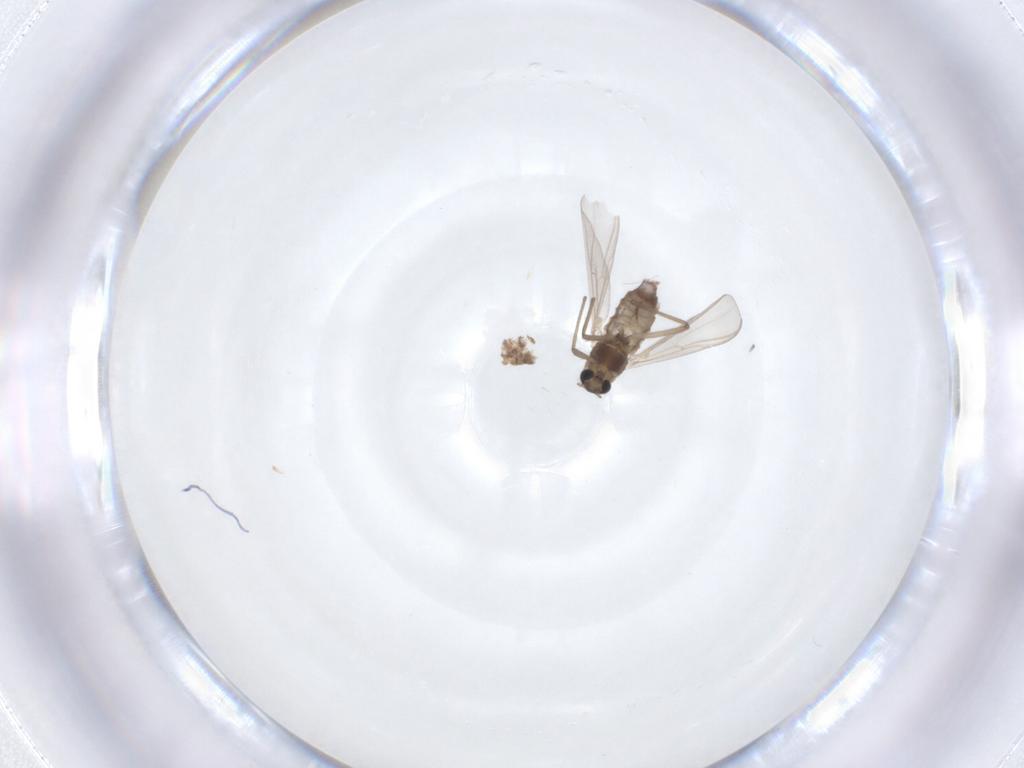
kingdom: Animalia
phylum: Arthropoda
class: Insecta
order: Diptera
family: Chironomidae
